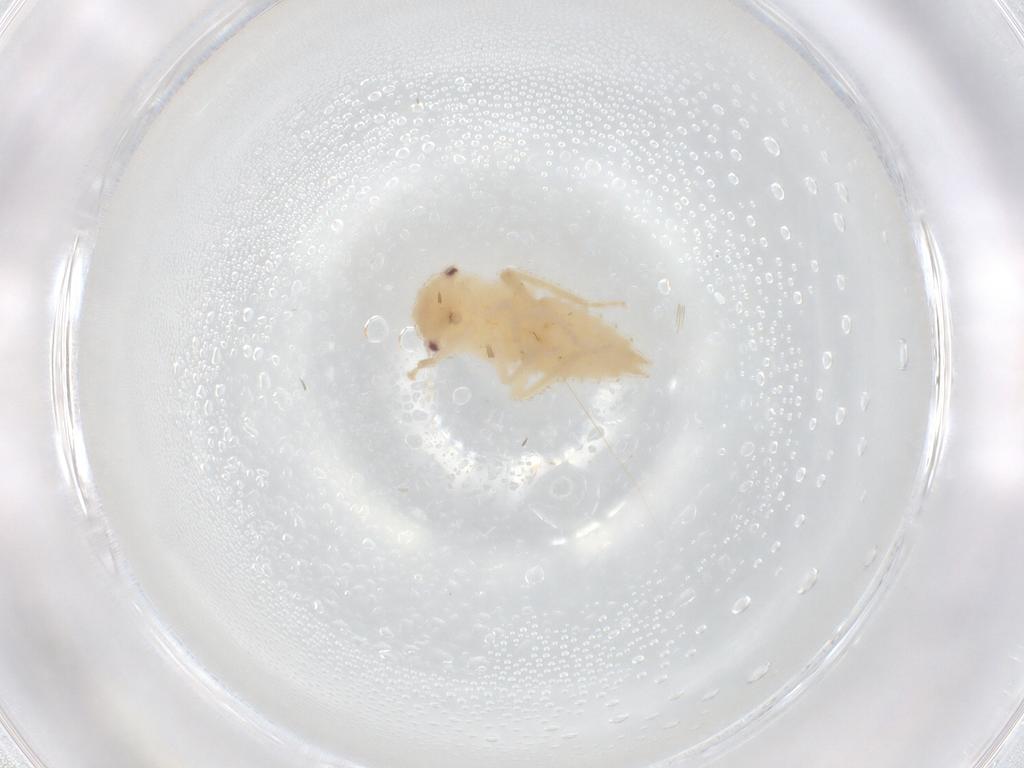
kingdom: Animalia
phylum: Arthropoda
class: Insecta
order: Hemiptera
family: Cicadellidae
